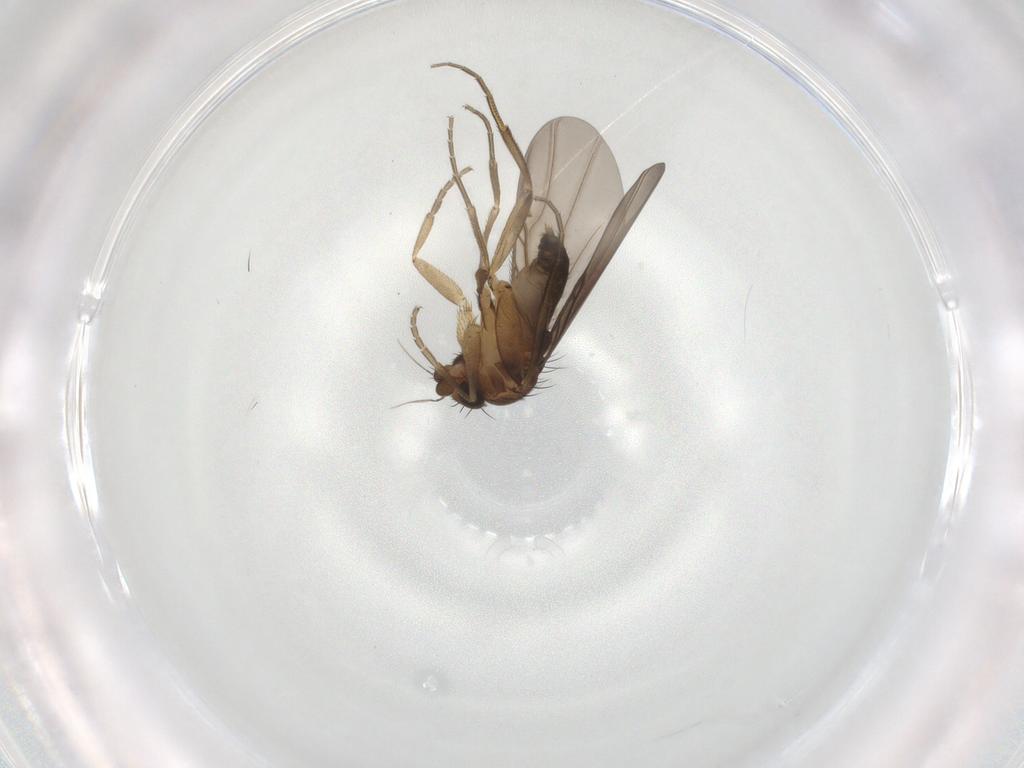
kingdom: Animalia
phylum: Arthropoda
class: Insecta
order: Diptera
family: Phoridae
